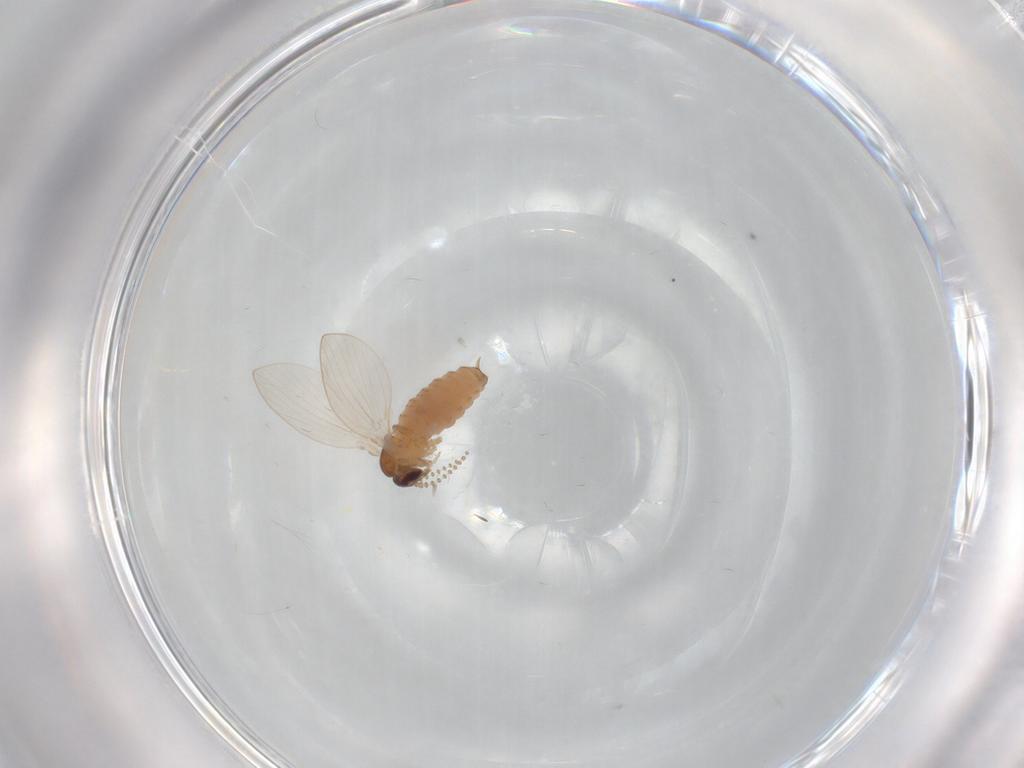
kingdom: Animalia
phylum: Arthropoda
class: Insecta
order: Diptera
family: Psychodidae
